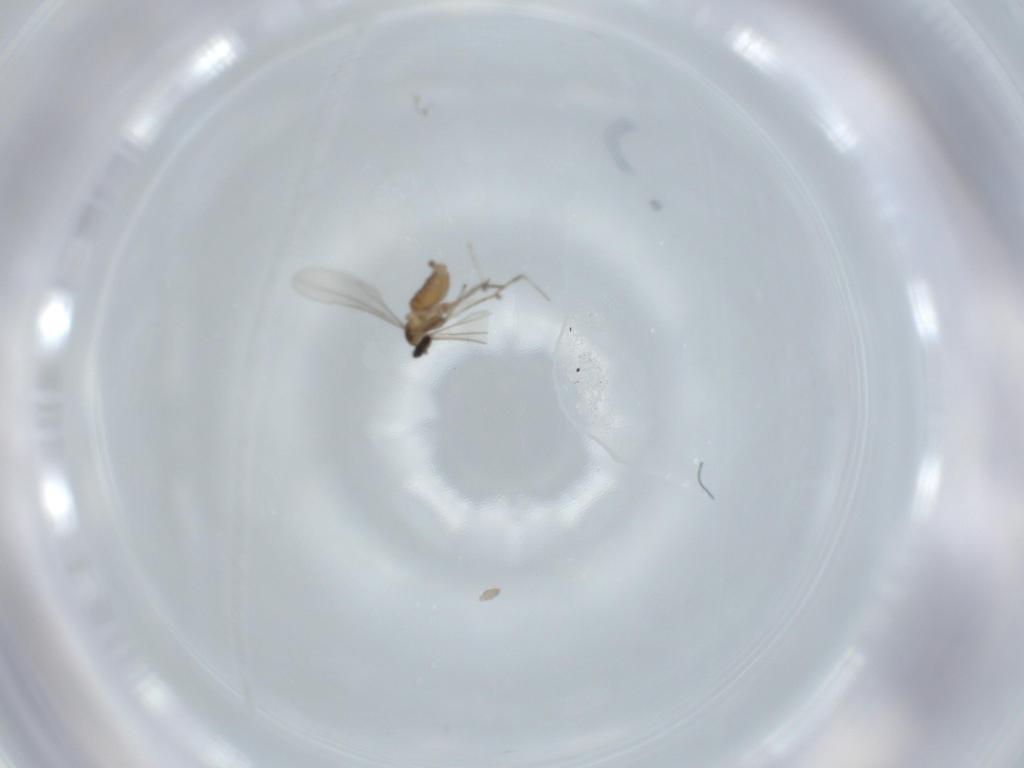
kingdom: Animalia
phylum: Arthropoda
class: Insecta
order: Diptera
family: Cecidomyiidae
